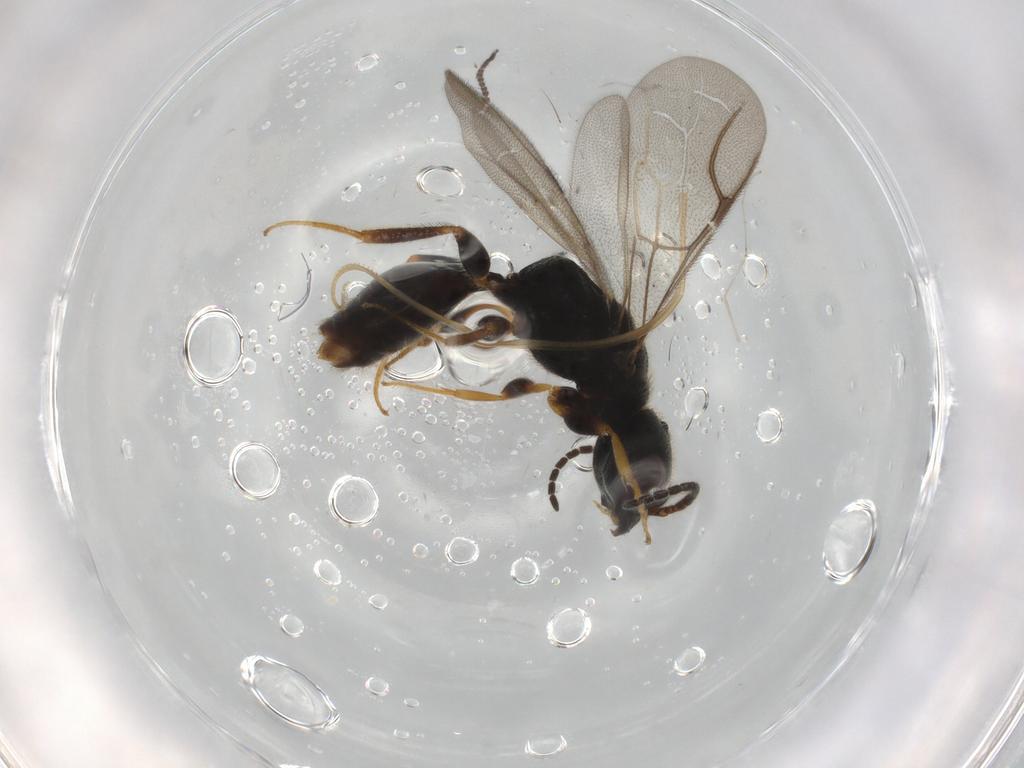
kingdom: Animalia
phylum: Arthropoda
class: Insecta
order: Hymenoptera
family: Bethylidae
